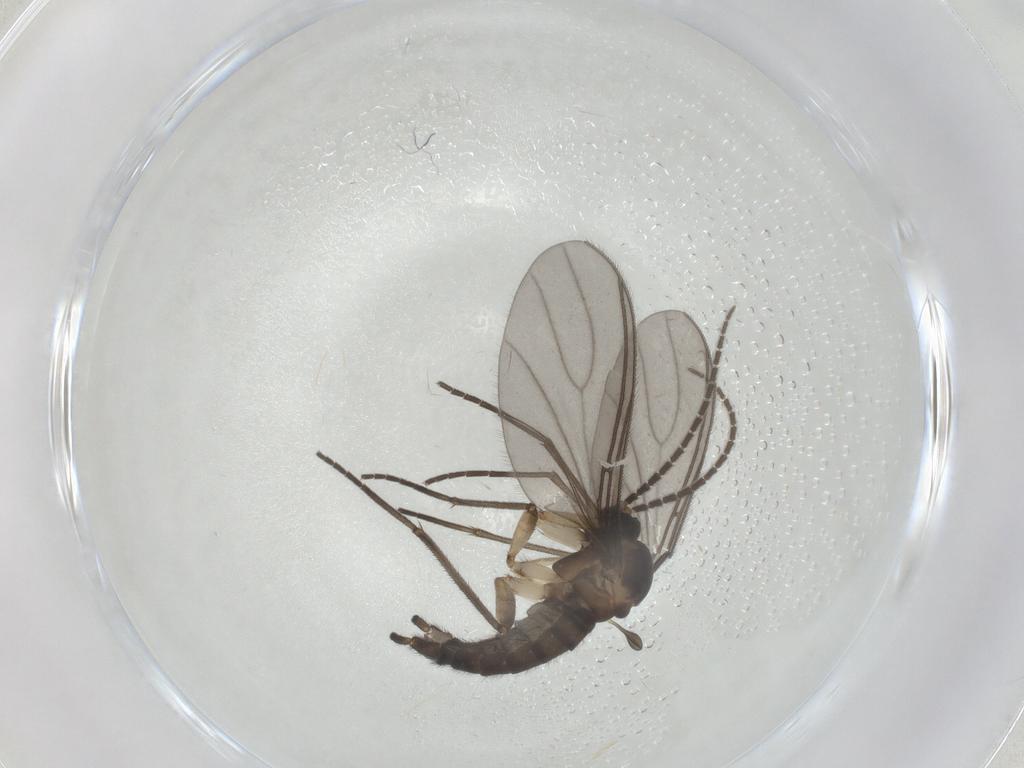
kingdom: Animalia
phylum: Arthropoda
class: Insecta
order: Diptera
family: Sciaridae
